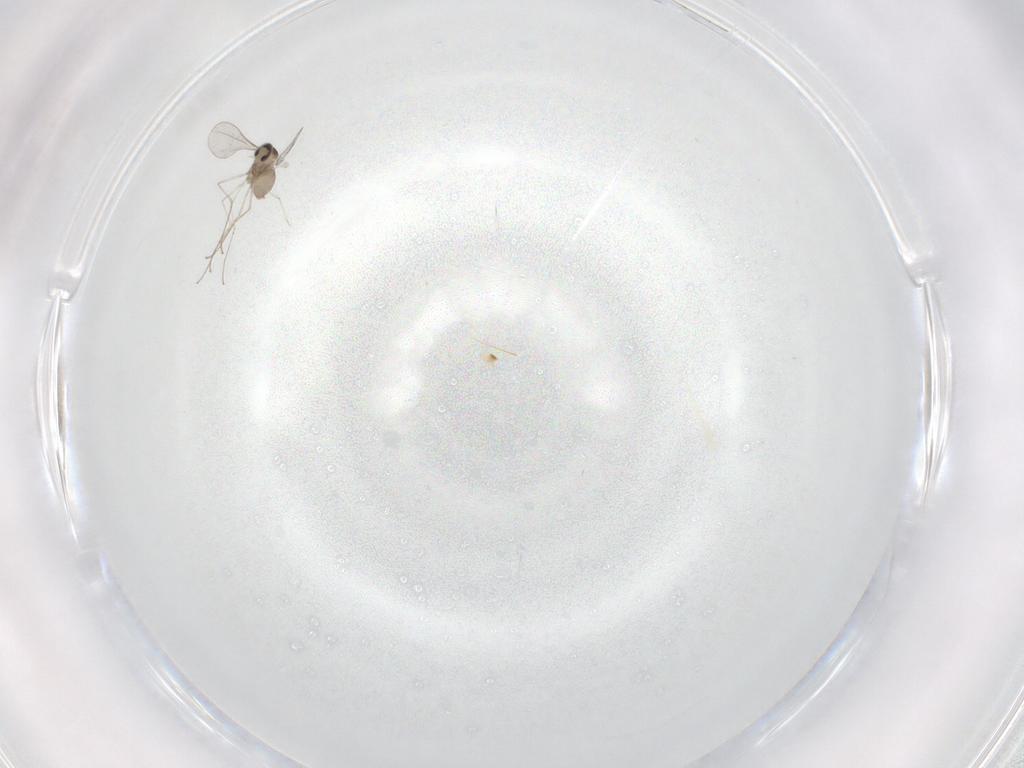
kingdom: Animalia
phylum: Arthropoda
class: Insecta
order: Diptera
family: Cecidomyiidae
